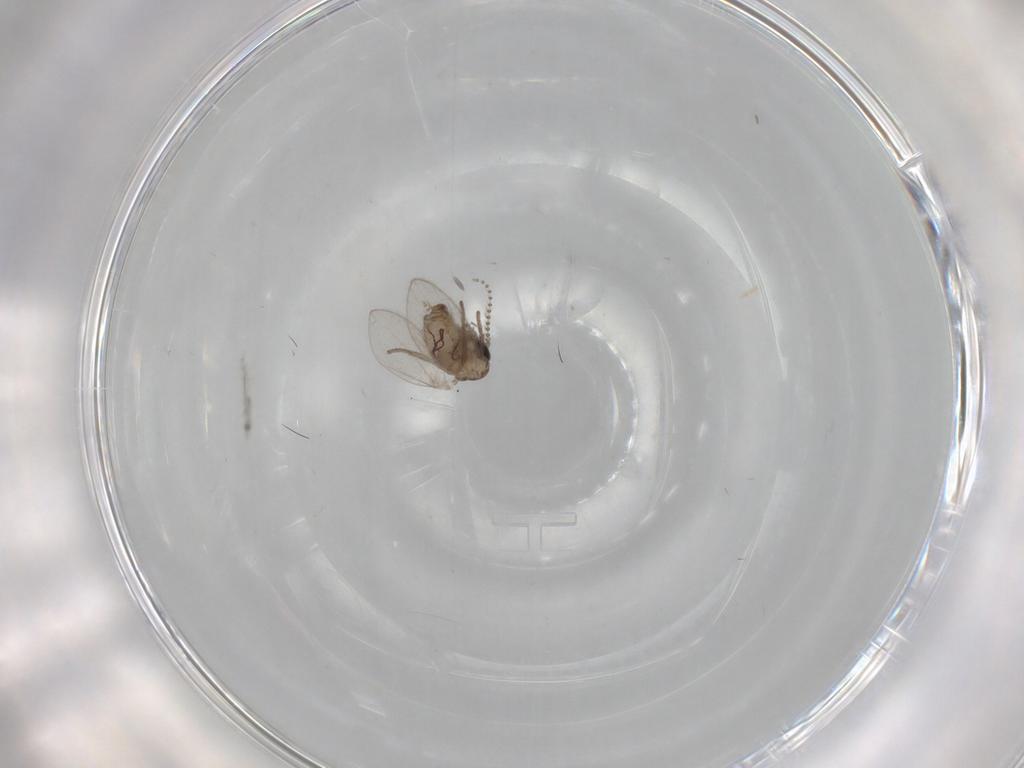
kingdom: Animalia
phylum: Arthropoda
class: Insecta
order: Diptera
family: Psychodidae
